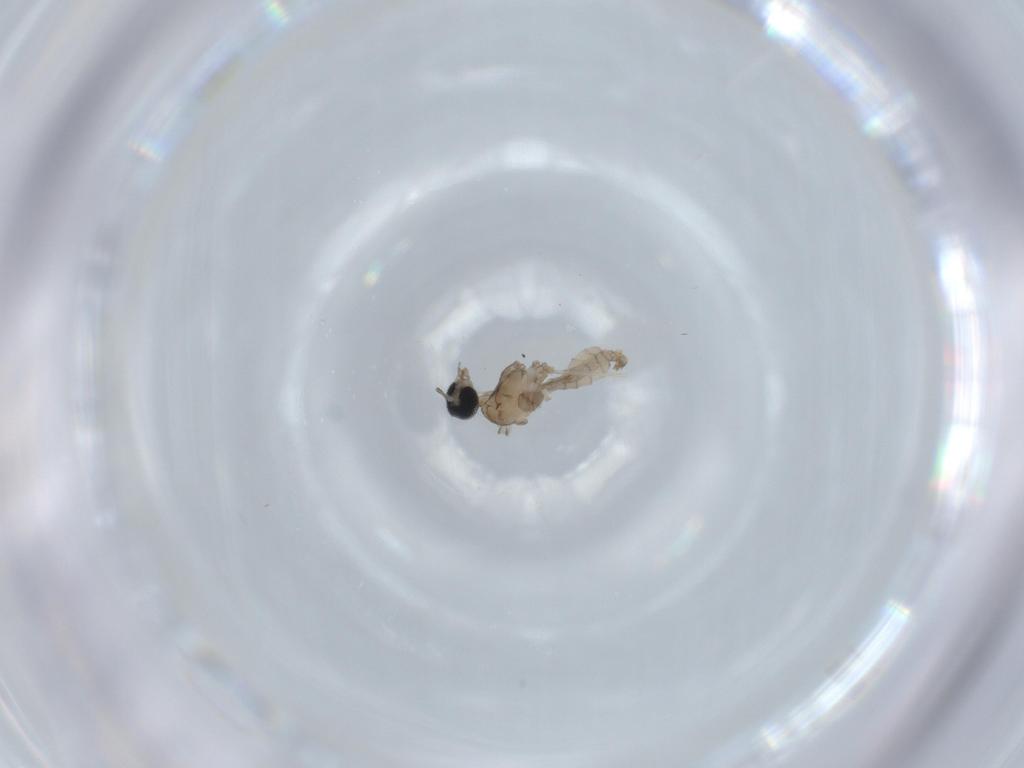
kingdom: Animalia
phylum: Arthropoda
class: Insecta
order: Diptera
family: Cecidomyiidae
